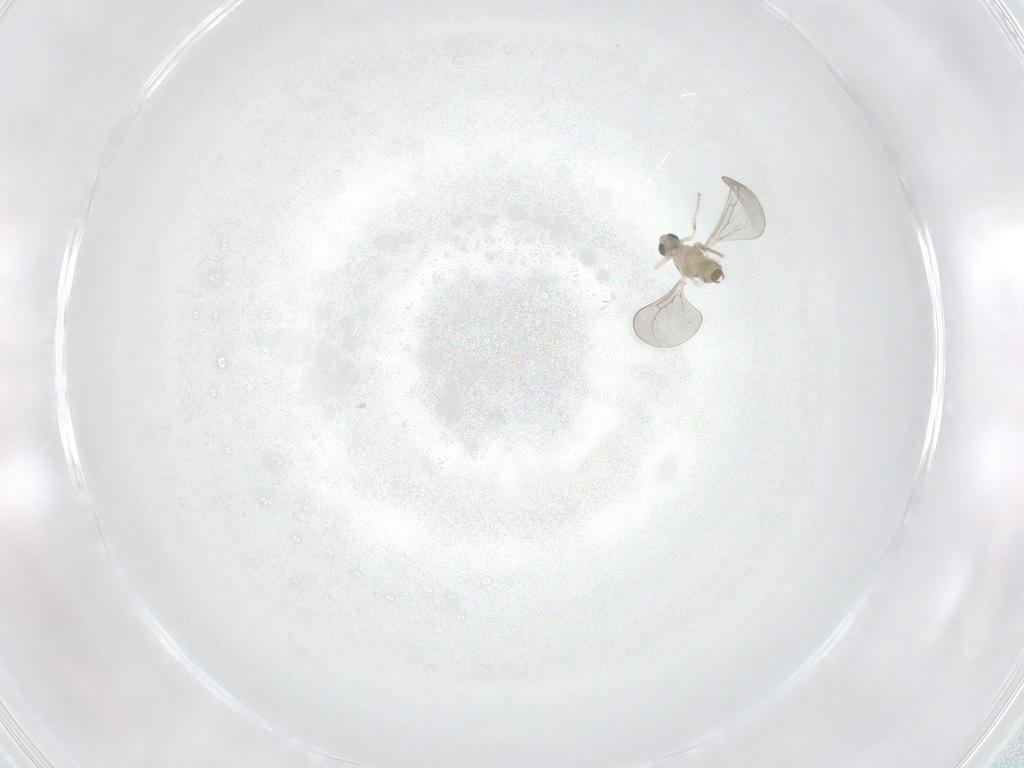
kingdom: Animalia
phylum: Arthropoda
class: Insecta
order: Diptera
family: Cecidomyiidae
